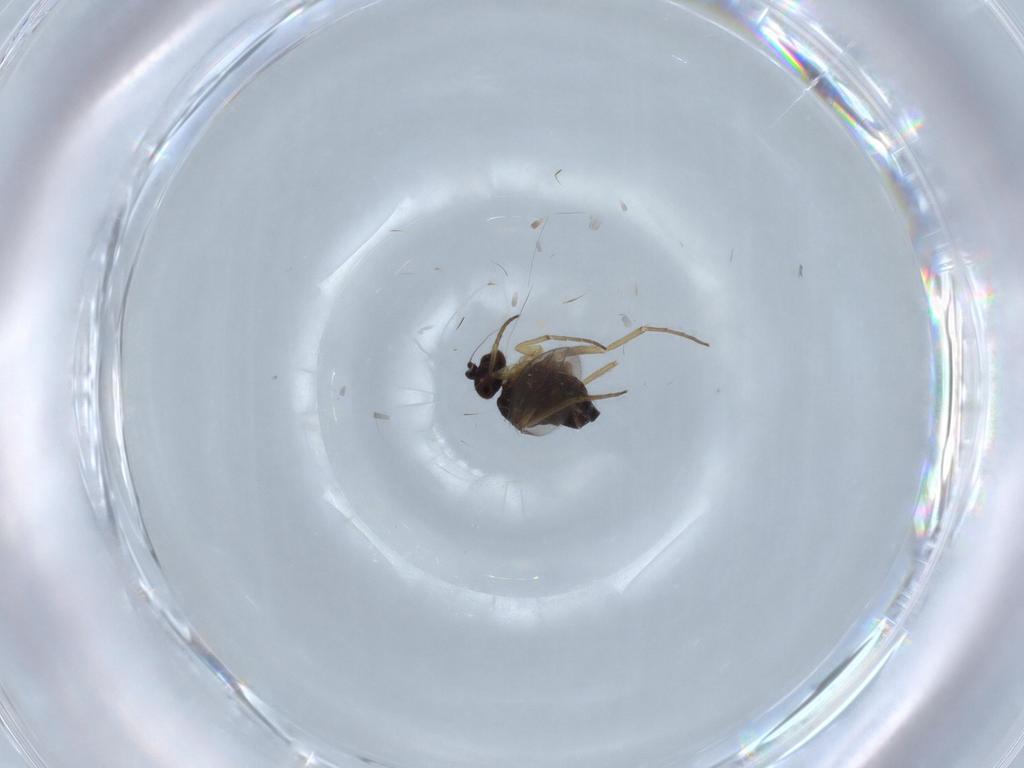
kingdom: Animalia
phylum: Arthropoda
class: Insecta
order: Diptera
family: Dolichopodidae
